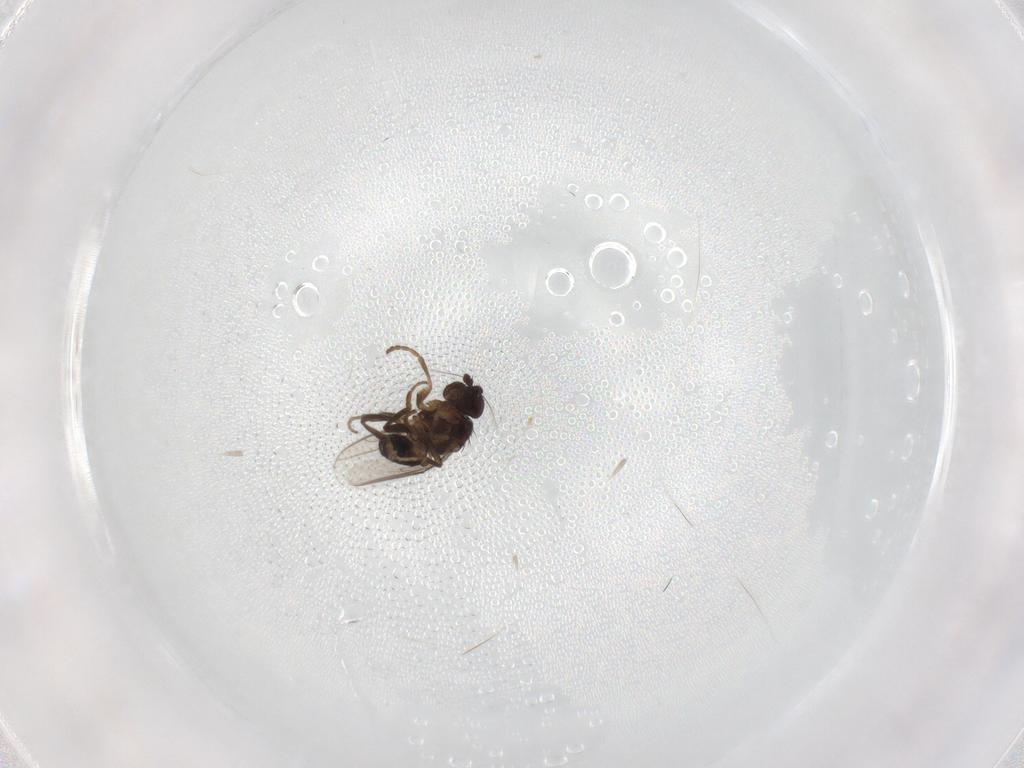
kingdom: Animalia
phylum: Arthropoda
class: Insecta
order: Diptera
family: Sphaeroceridae
